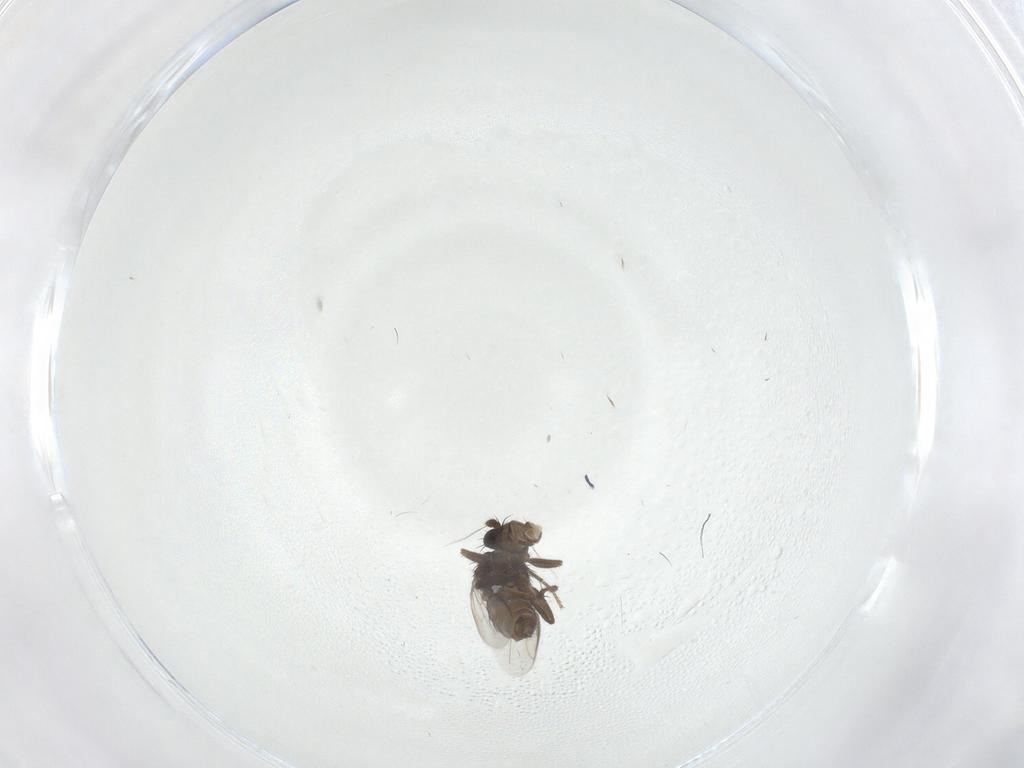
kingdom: Animalia
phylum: Arthropoda
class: Insecta
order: Diptera
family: Sphaeroceridae
